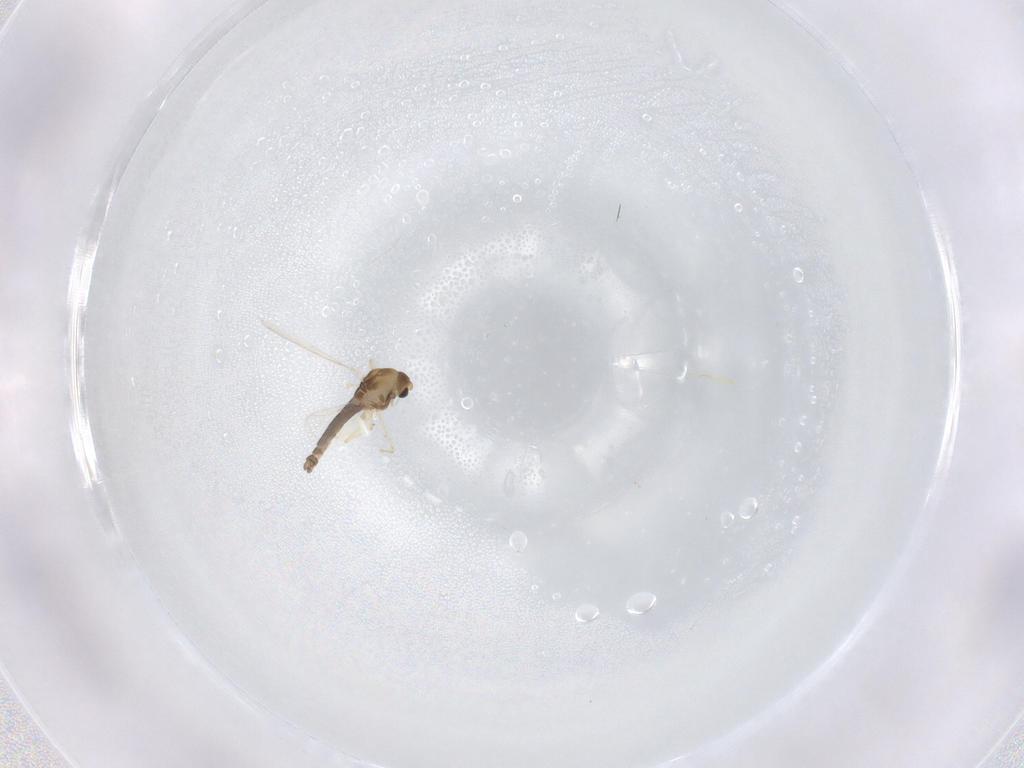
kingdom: Animalia
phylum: Arthropoda
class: Insecta
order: Diptera
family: Chironomidae
